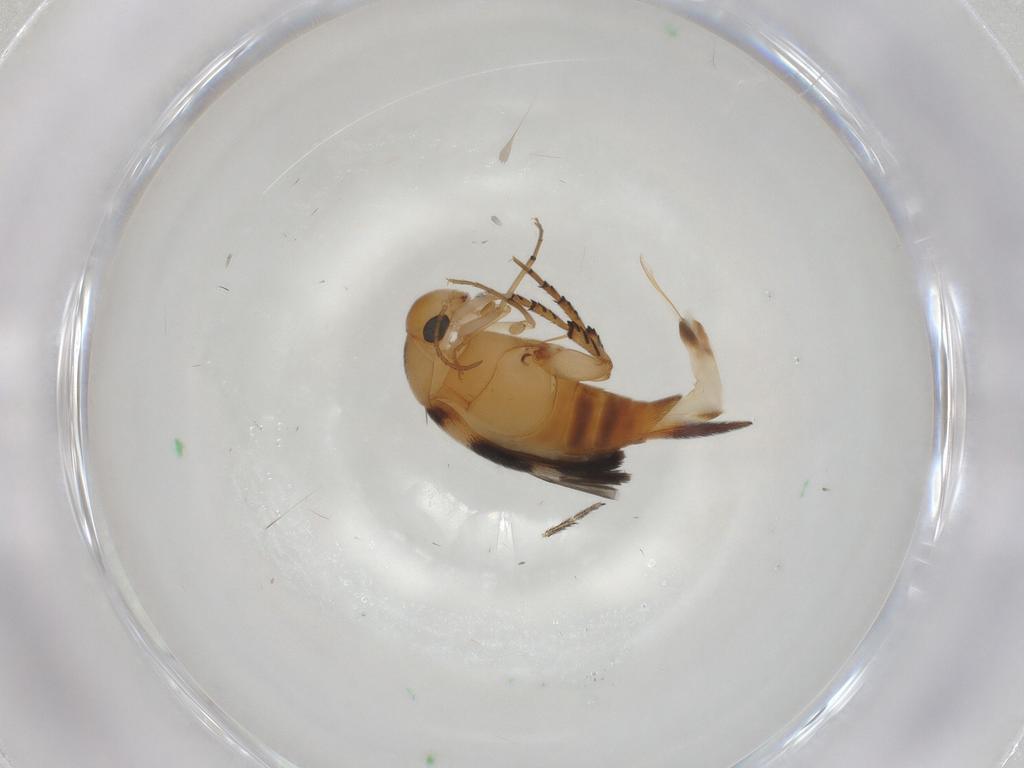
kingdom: Animalia
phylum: Arthropoda
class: Insecta
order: Coleoptera
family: Mordellidae
